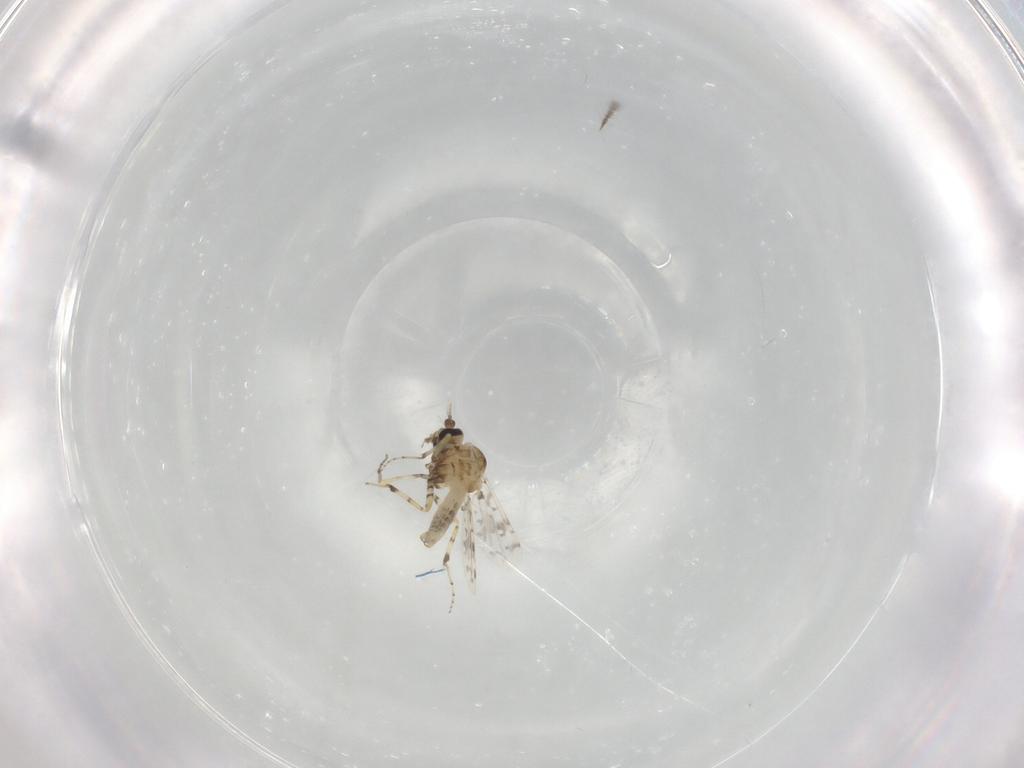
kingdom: Animalia
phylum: Arthropoda
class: Insecta
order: Diptera
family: Ceratopogonidae
